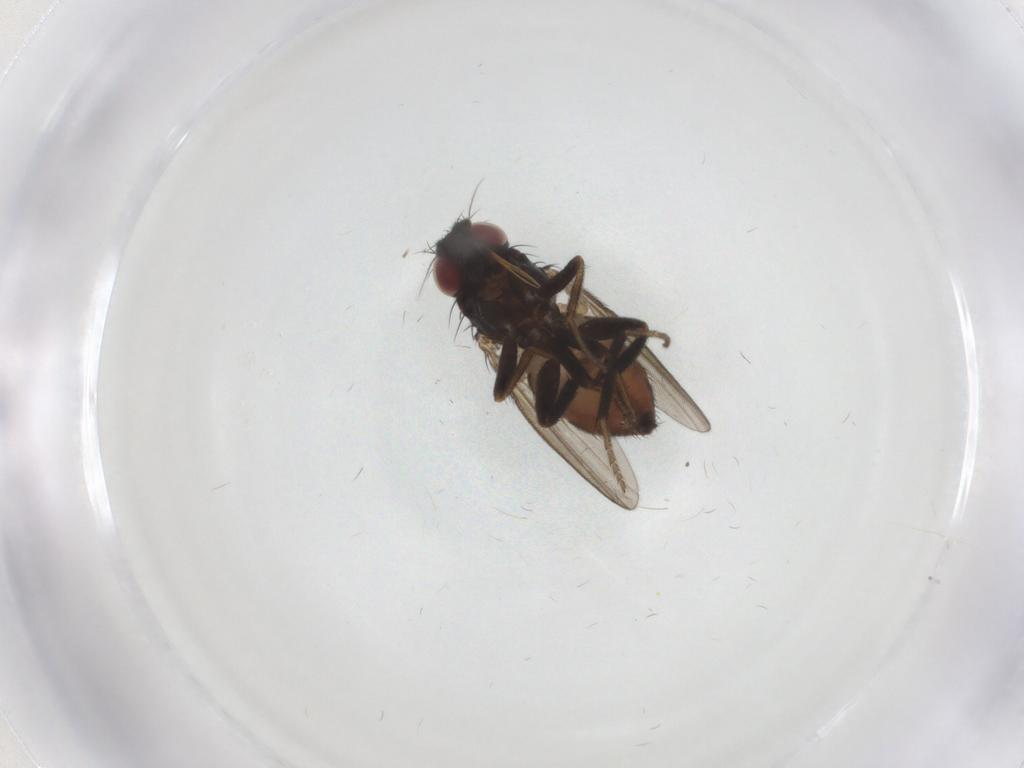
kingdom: Animalia
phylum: Arthropoda
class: Insecta
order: Diptera
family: Milichiidae
